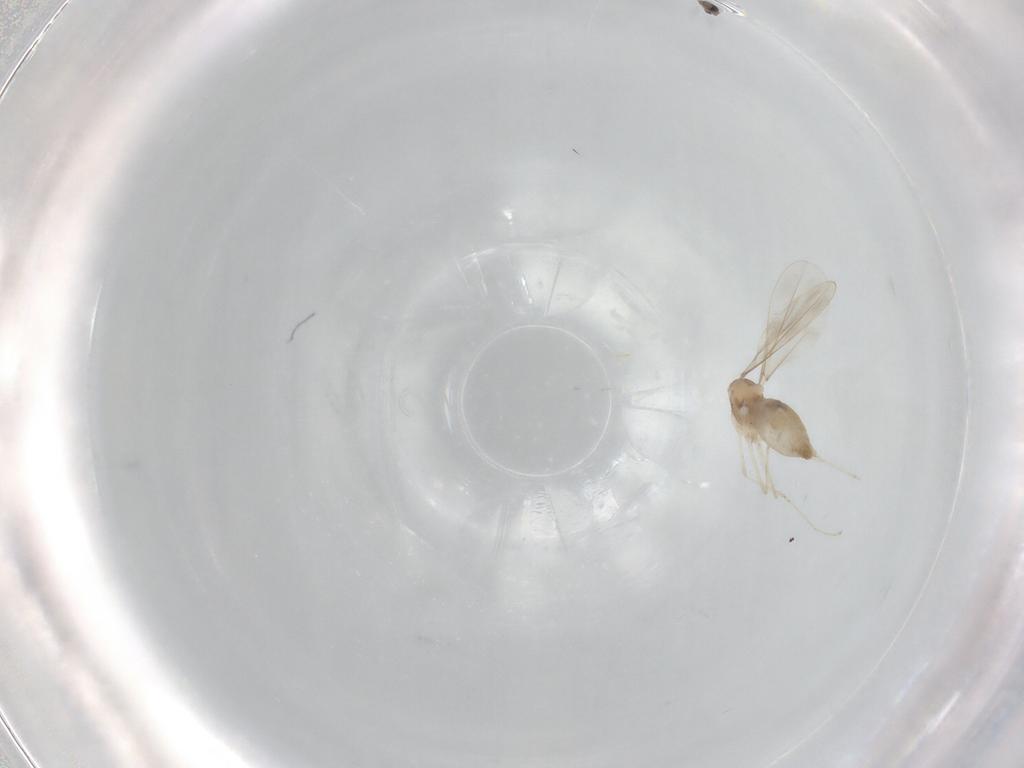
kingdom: Animalia
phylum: Arthropoda
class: Insecta
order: Diptera
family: Cecidomyiidae
